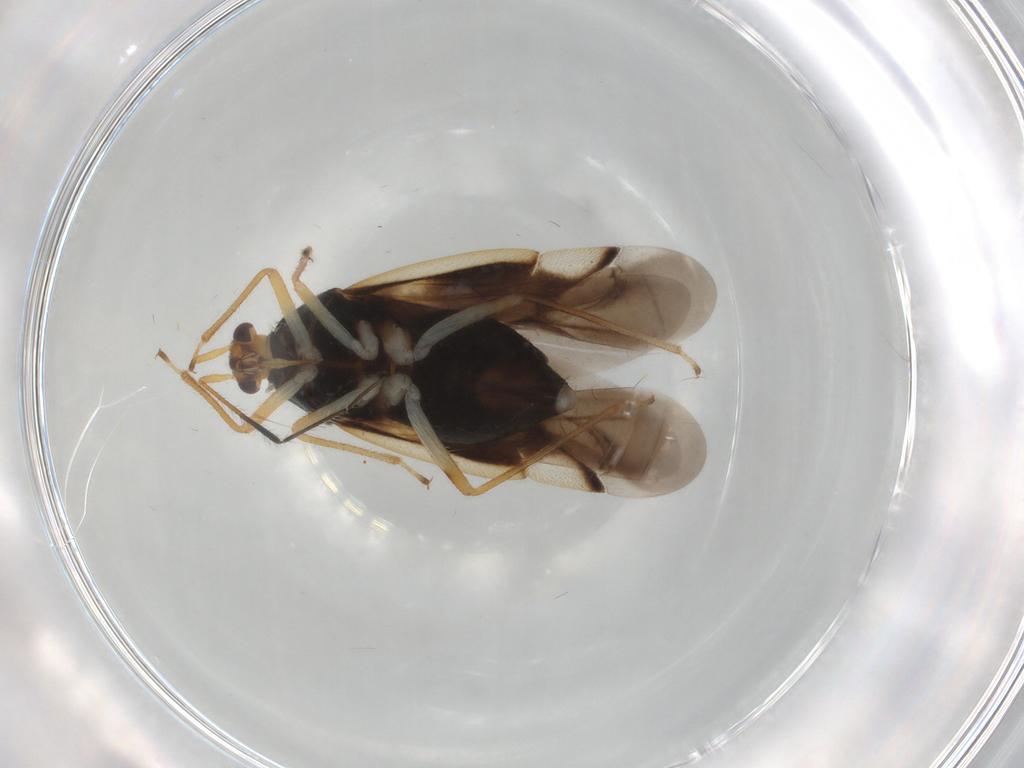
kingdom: Animalia
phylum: Arthropoda
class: Insecta
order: Hemiptera
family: Miridae
